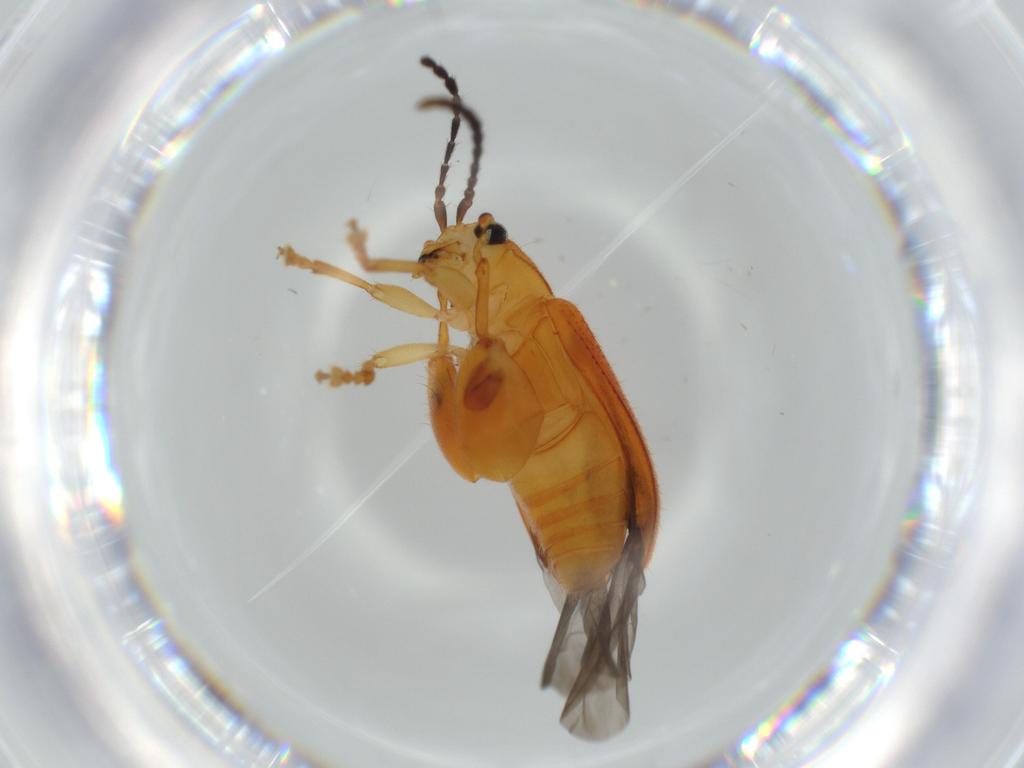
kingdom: Animalia
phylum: Arthropoda
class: Insecta
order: Coleoptera
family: Chrysomelidae
